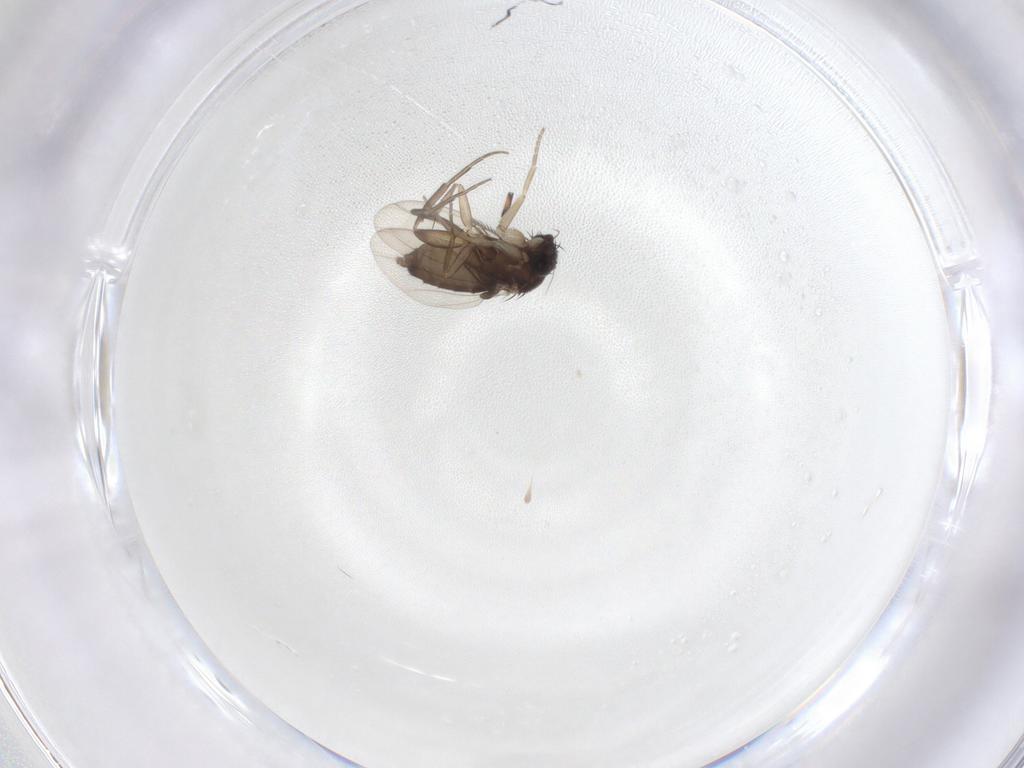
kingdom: Animalia
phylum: Arthropoda
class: Insecta
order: Diptera
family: Phoridae
